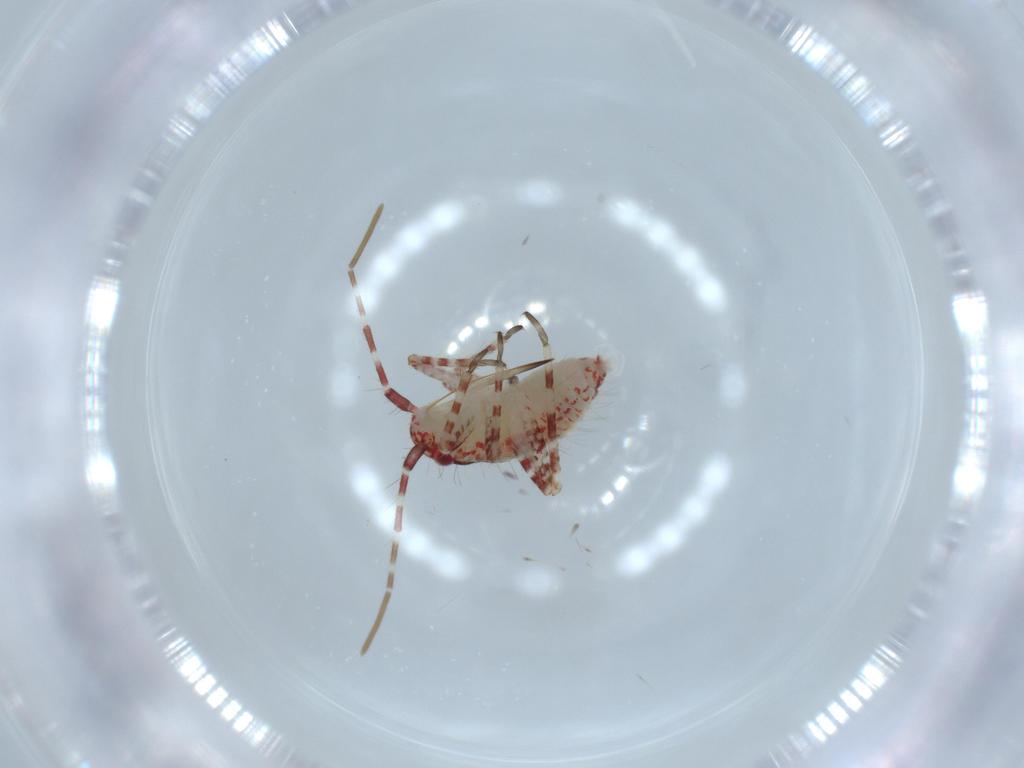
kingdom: Animalia
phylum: Arthropoda
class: Insecta
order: Hemiptera
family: Miridae
